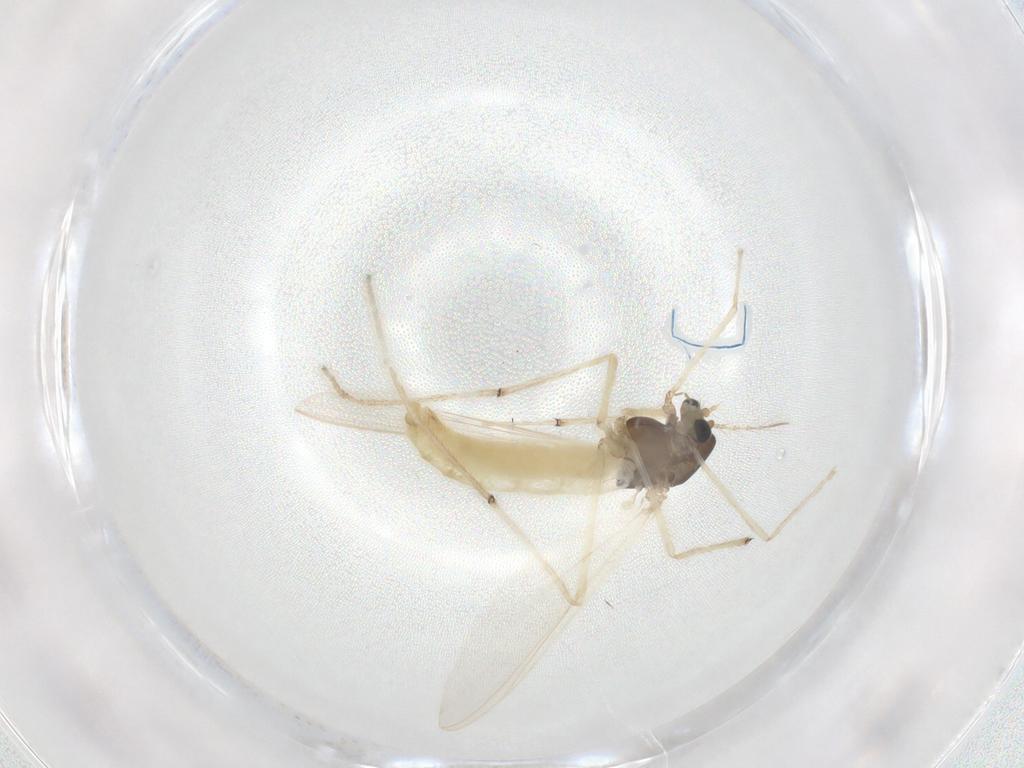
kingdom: Animalia
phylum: Arthropoda
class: Insecta
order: Diptera
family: Chironomidae
